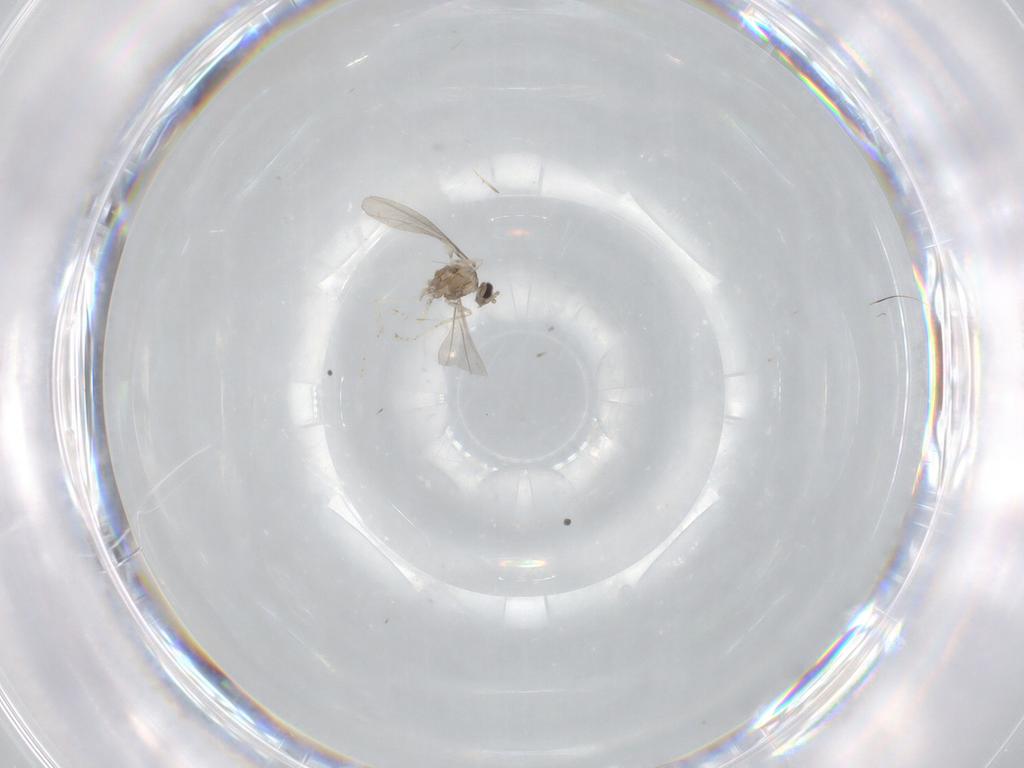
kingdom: Animalia
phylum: Arthropoda
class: Insecta
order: Diptera
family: Cecidomyiidae
